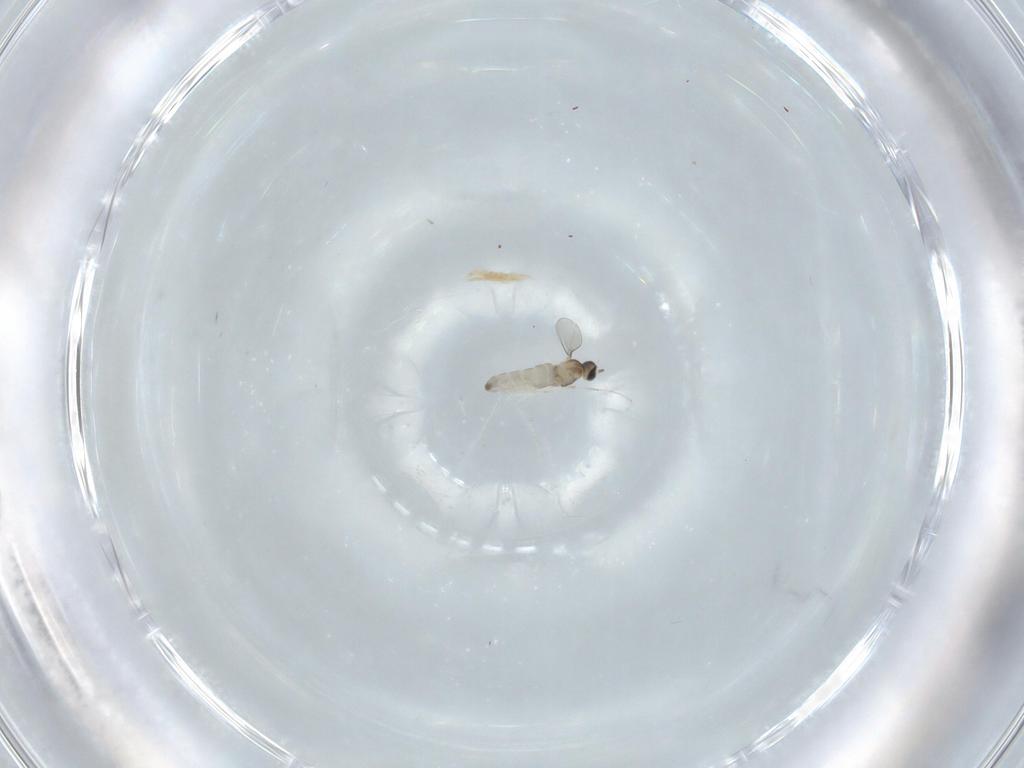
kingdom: Animalia
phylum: Arthropoda
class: Insecta
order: Diptera
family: Cecidomyiidae
